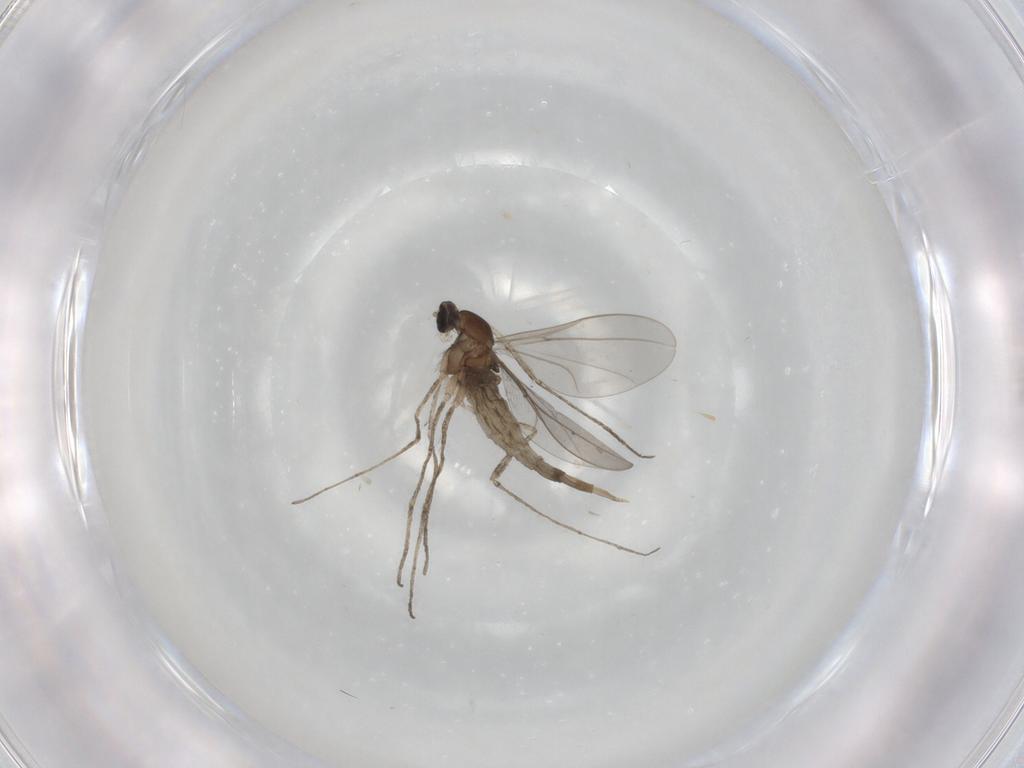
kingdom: Animalia
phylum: Arthropoda
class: Insecta
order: Diptera
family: Cecidomyiidae
